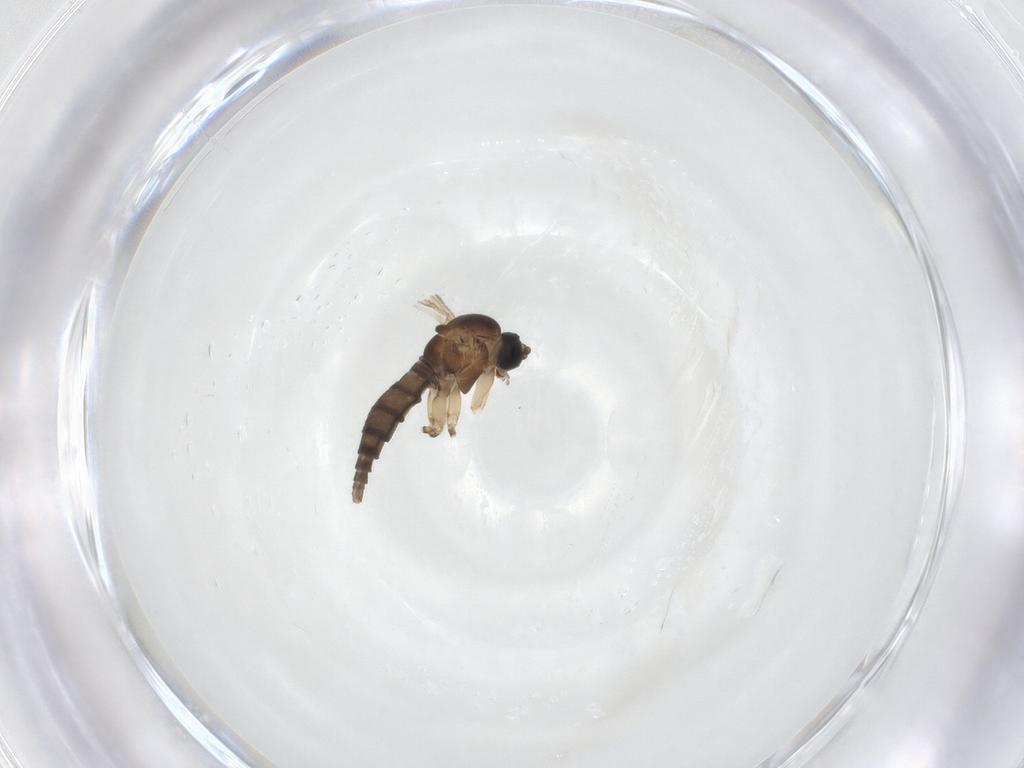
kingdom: Animalia
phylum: Arthropoda
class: Insecta
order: Diptera
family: Sciaridae
